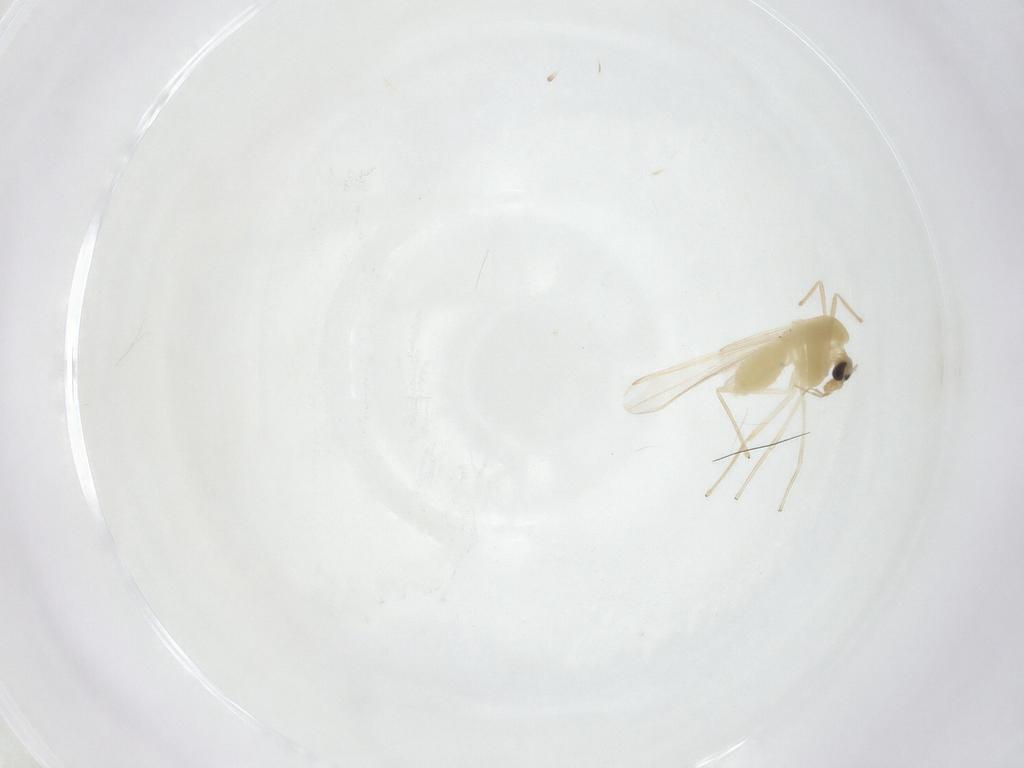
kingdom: Animalia
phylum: Arthropoda
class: Insecta
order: Diptera
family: Chironomidae
